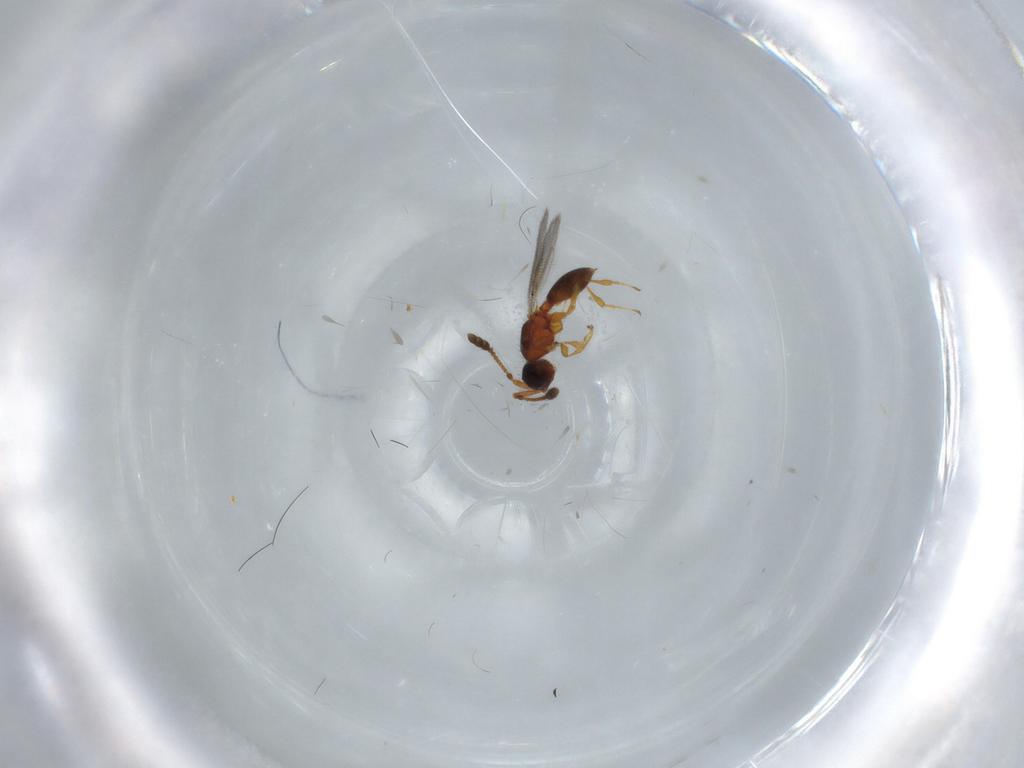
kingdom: Animalia
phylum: Arthropoda
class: Insecta
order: Hymenoptera
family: Diapriidae
